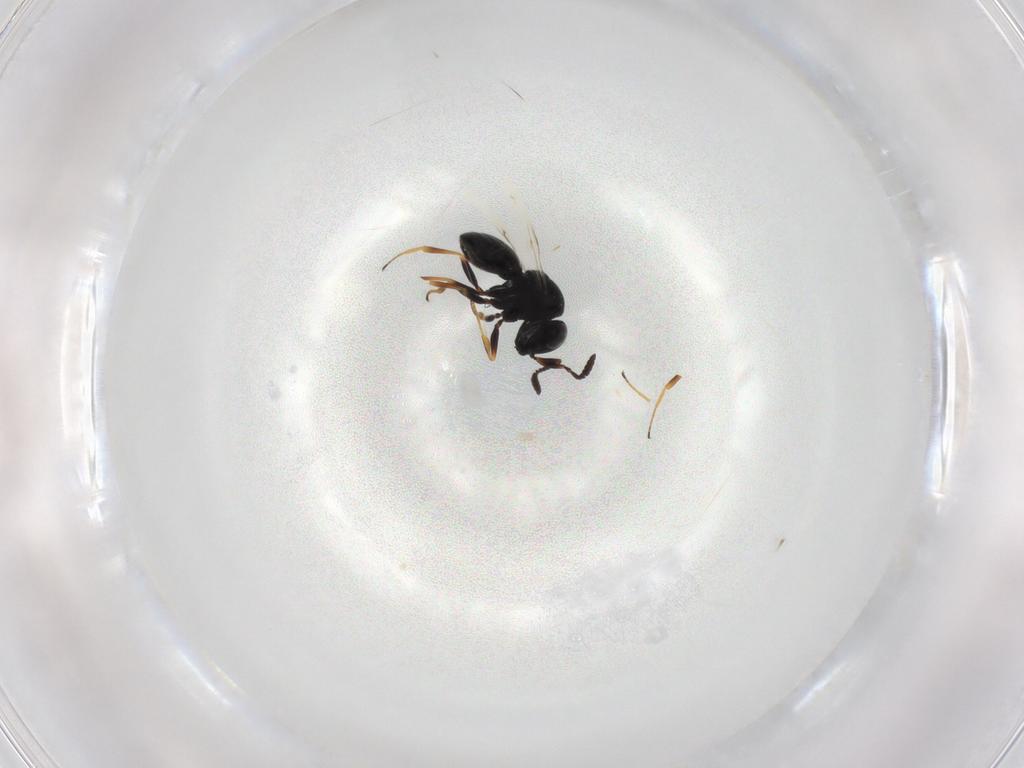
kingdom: Animalia
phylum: Arthropoda
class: Insecta
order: Hymenoptera
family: Scelionidae
